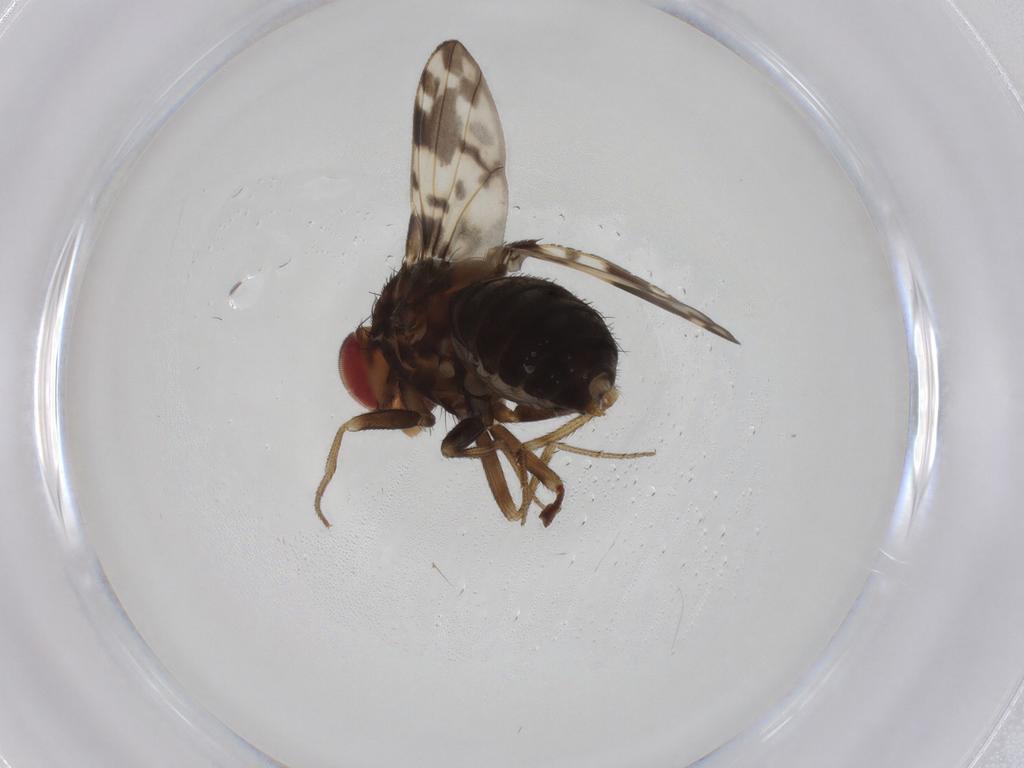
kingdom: Animalia
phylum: Arthropoda
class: Insecta
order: Diptera
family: Drosophilidae
